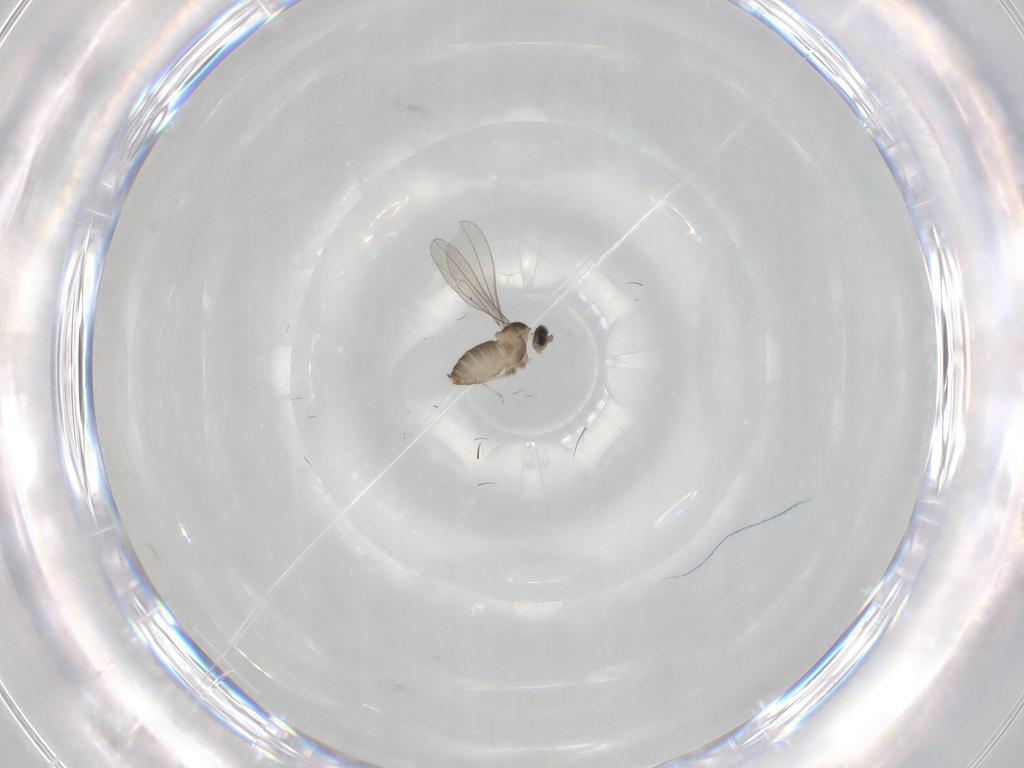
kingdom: Animalia
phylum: Arthropoda
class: Insecta
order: Diptera
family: Cecidomyiidae
